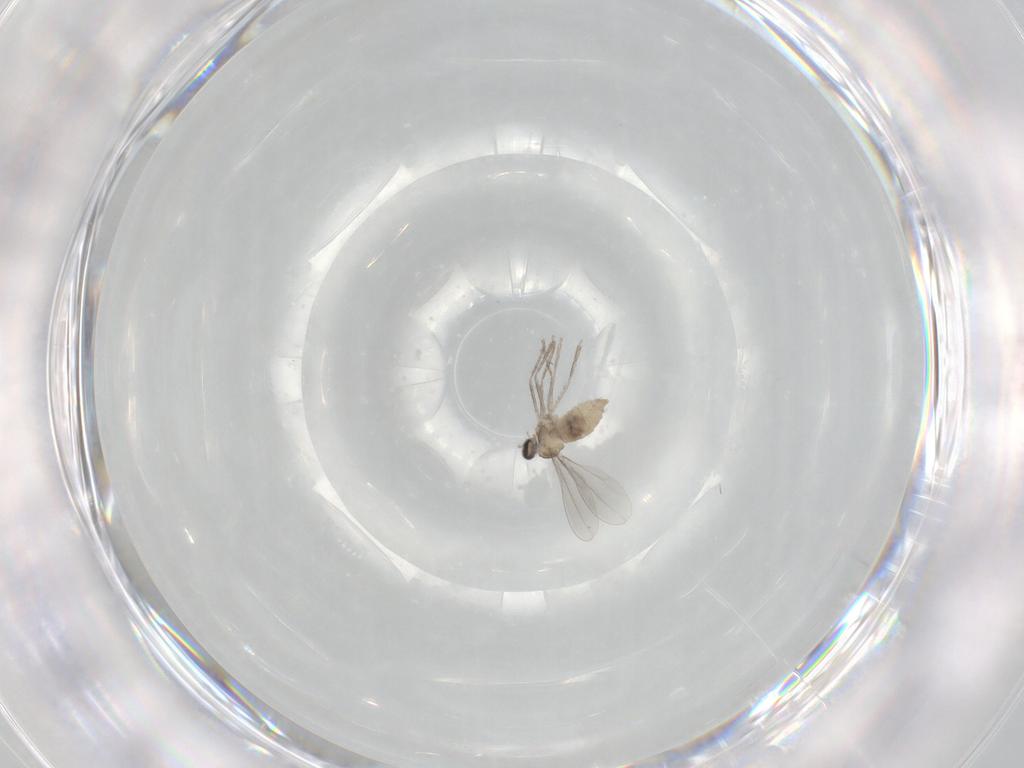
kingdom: Animalia
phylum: Arthropoda
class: Insecta
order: Diptera
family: Cecidomyiidae
